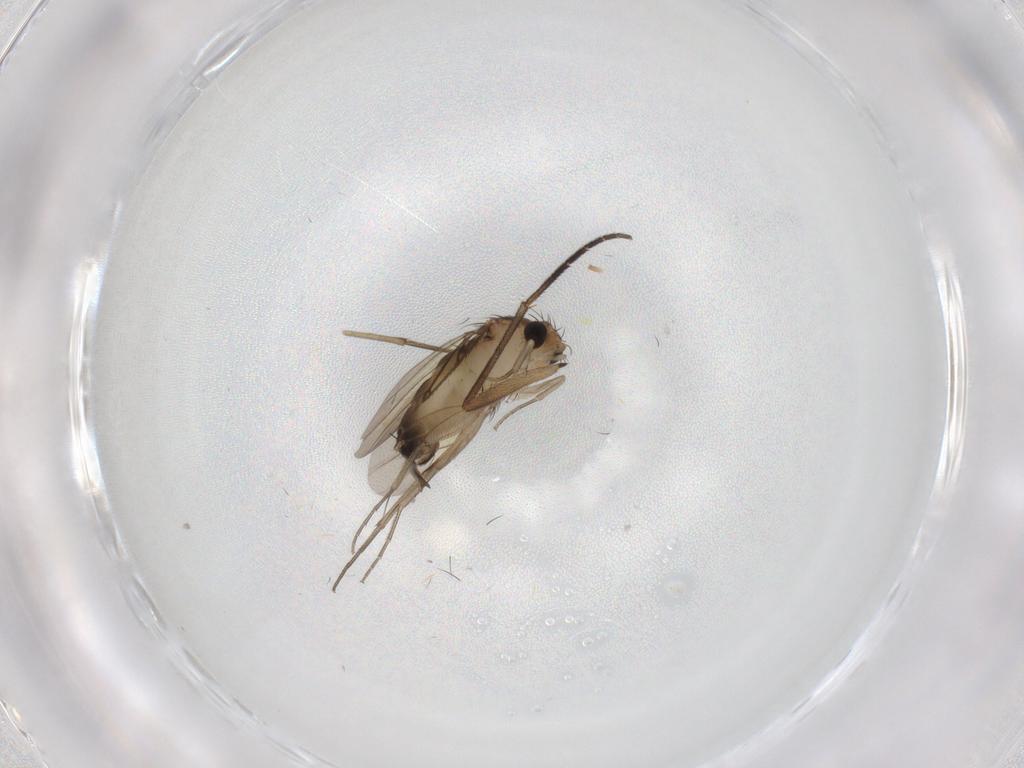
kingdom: Animalia
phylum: Arthropoda
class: Insecta
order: Diptera
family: Phoridae
